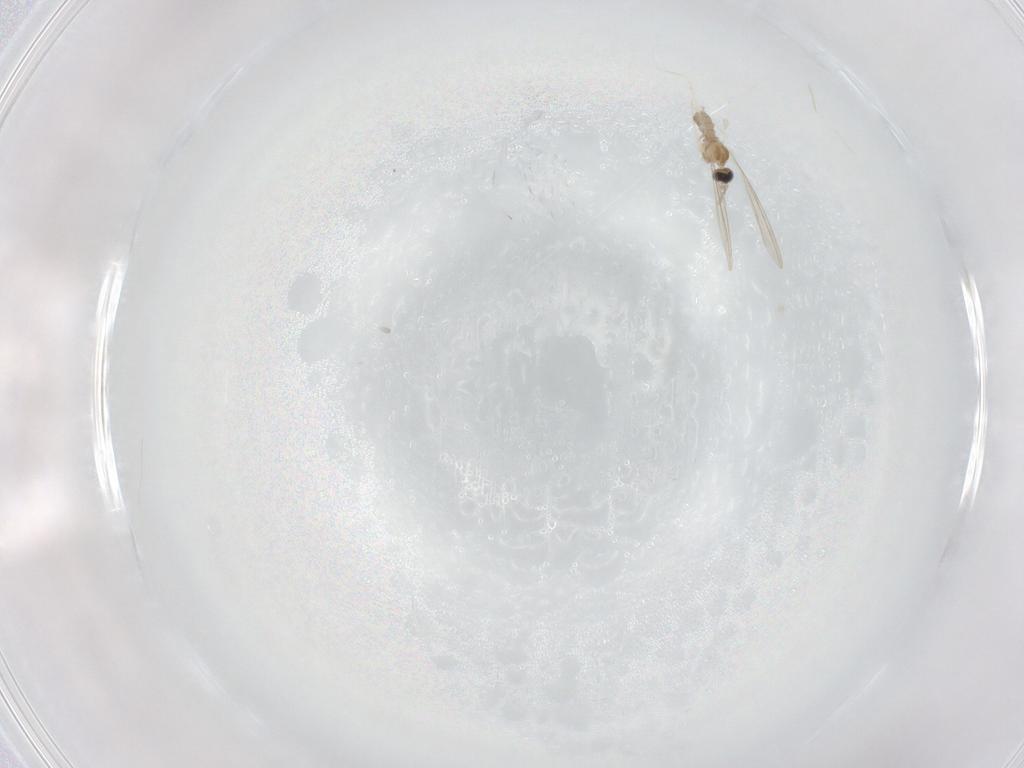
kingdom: Animalia
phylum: Arthropoda
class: Insecta
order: Diptera
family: Cecidomyiidae
